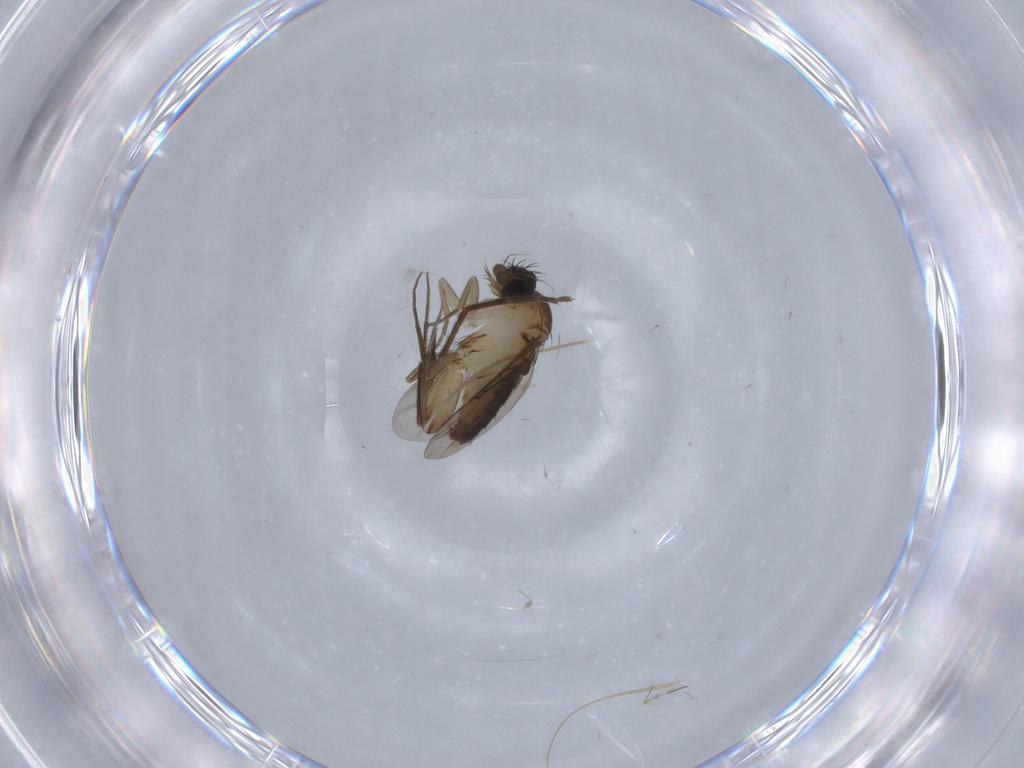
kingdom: Animalia
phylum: Arthropoda
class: Insecta
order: Diptera
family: Phoridae
